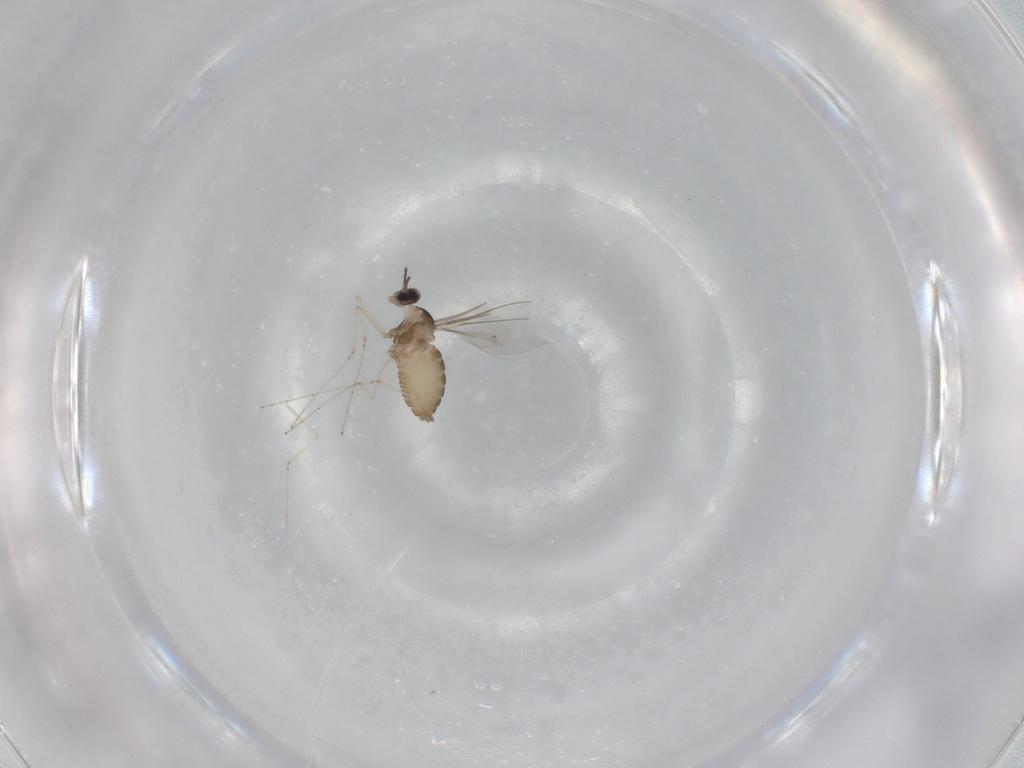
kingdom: Animalia
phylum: Arthropoda
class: Insecta
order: Diptera
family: Cecidomyiidae
